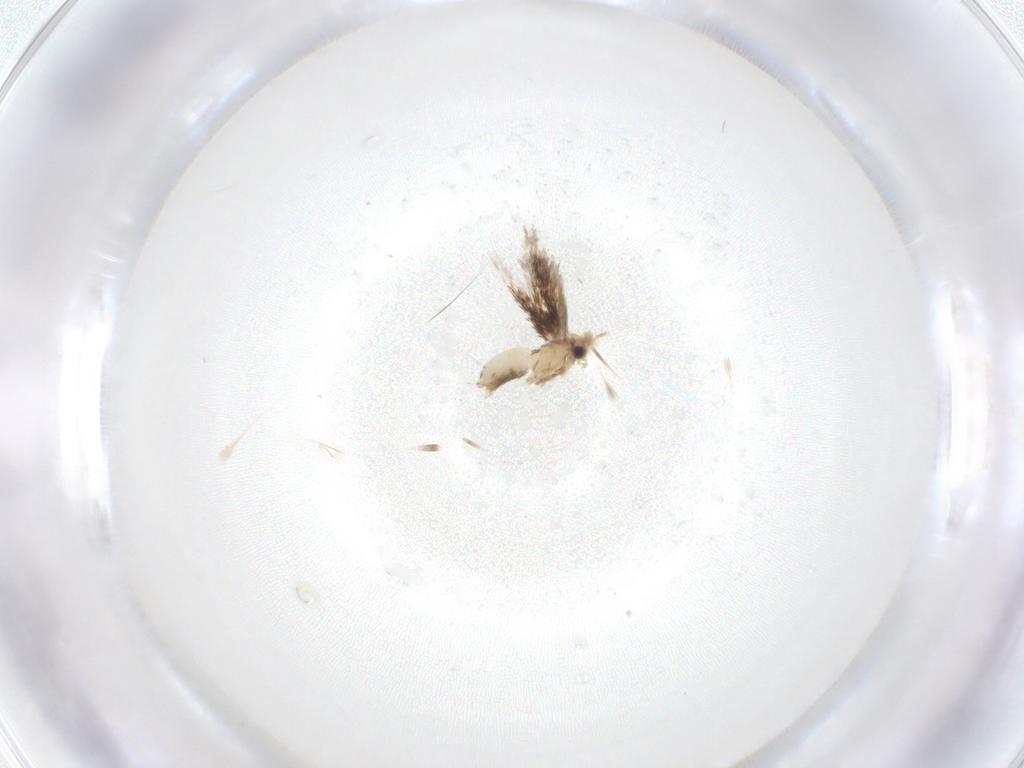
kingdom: Animalia
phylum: Arthropoda
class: Insecta
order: Lepidoptera
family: Nepticulidae
